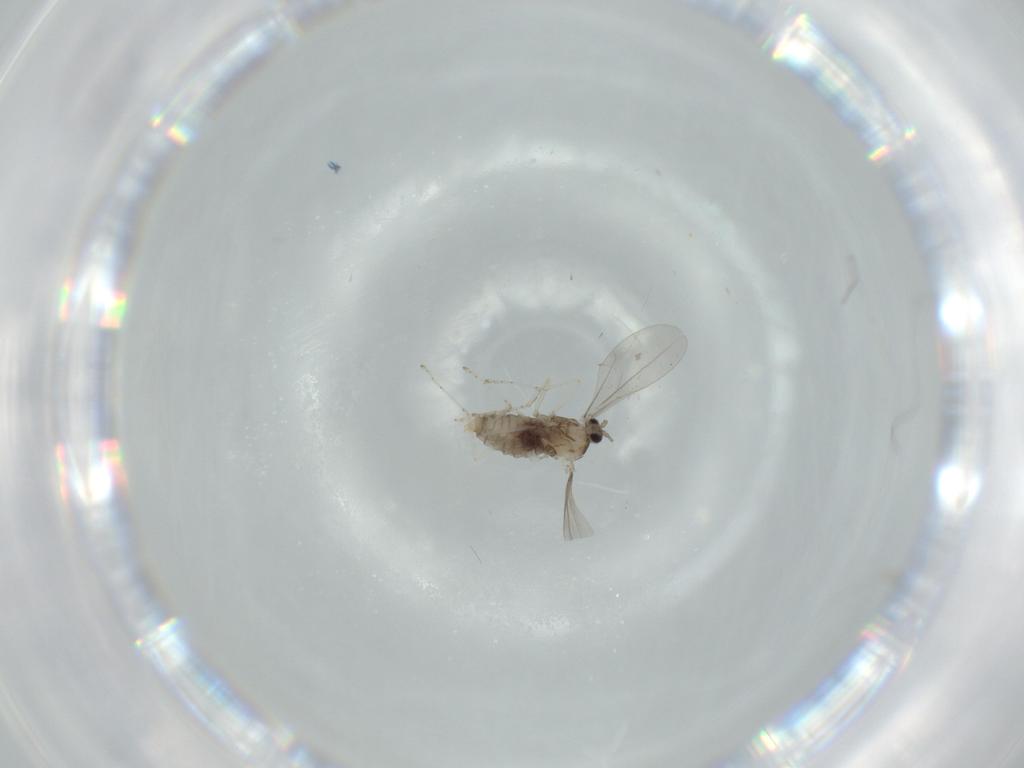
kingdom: Animalia
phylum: Arthropoda
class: Insecta
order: Diptera
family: Cecidomyiidae
